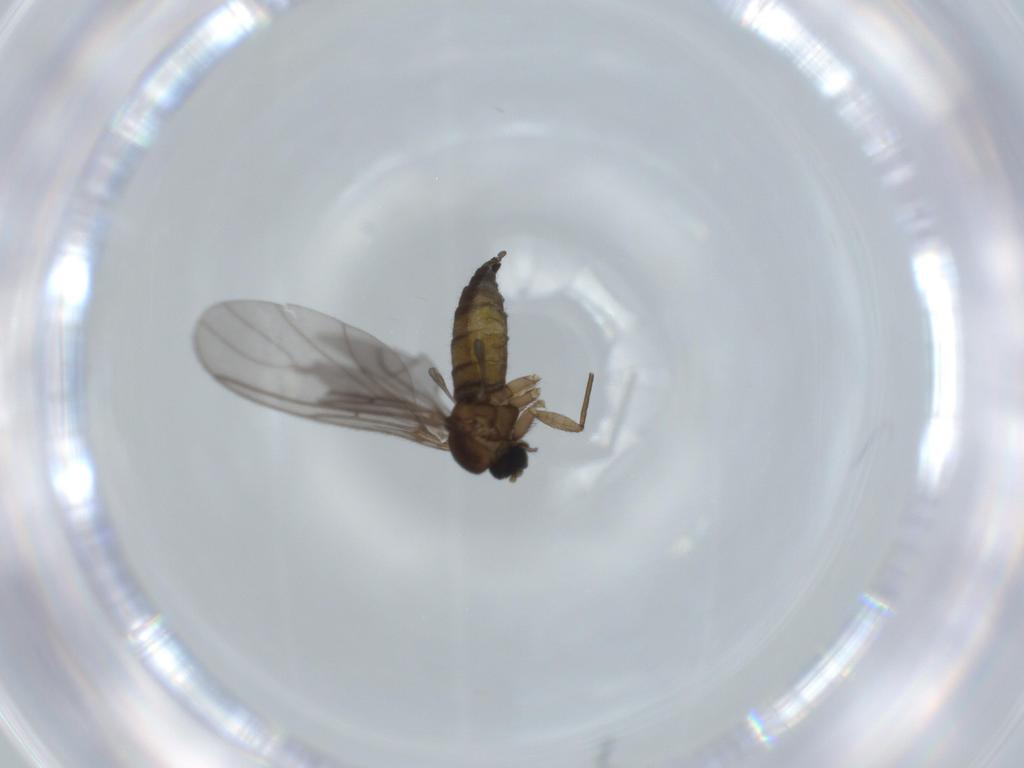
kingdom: Animalia
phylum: Arthropoda
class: Insecta
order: Diptera
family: Sciaridae
